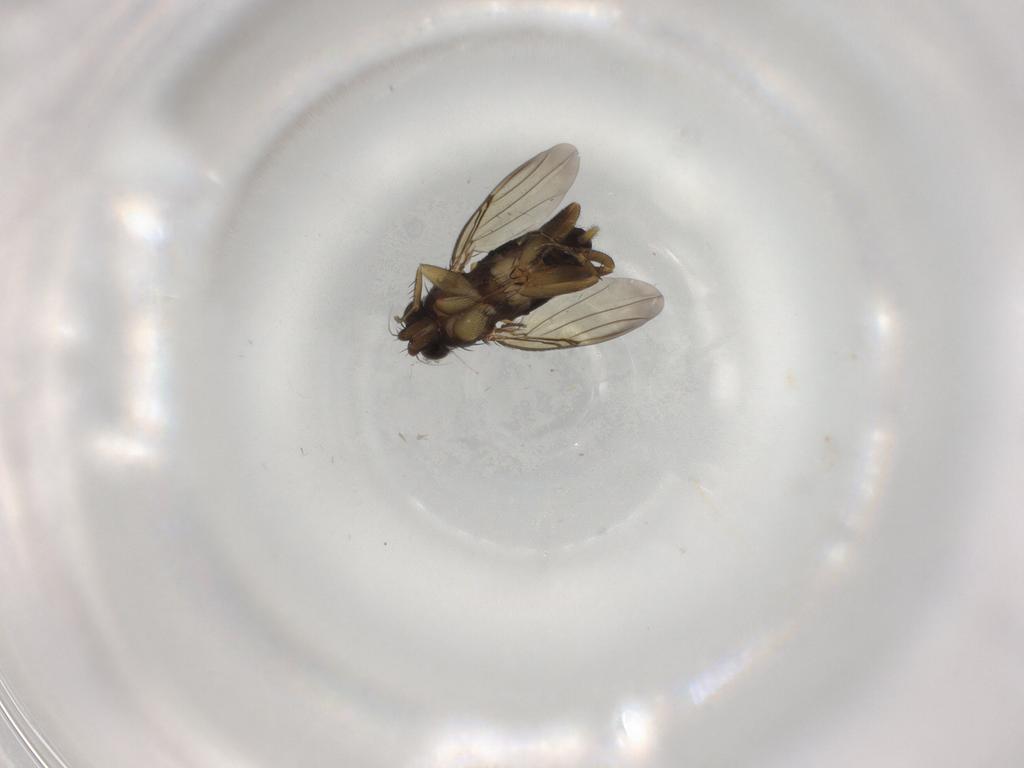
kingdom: Animalia
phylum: Arthropoda
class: Insecta
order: Diptera
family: Phoridae
